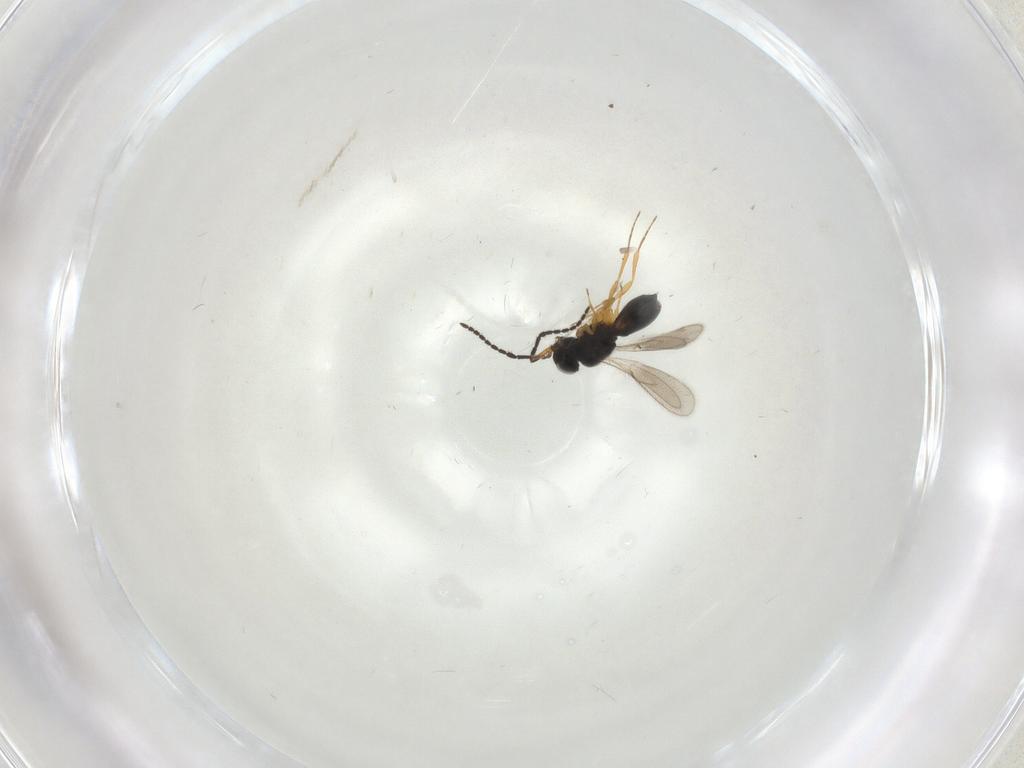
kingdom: Animalia
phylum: Arthropoda
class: Insecta
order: Hymenoptera
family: Scelionidae
